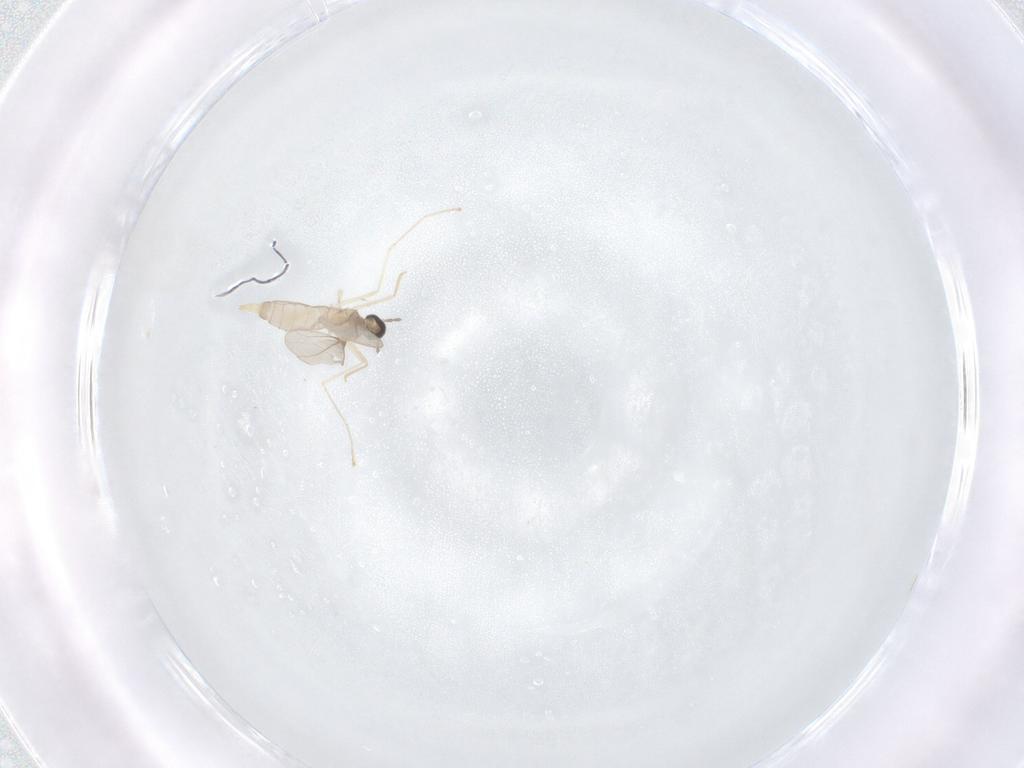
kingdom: Animalia
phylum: Arthropoda
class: Insecta
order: Diptera
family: Cecidomyiidae
